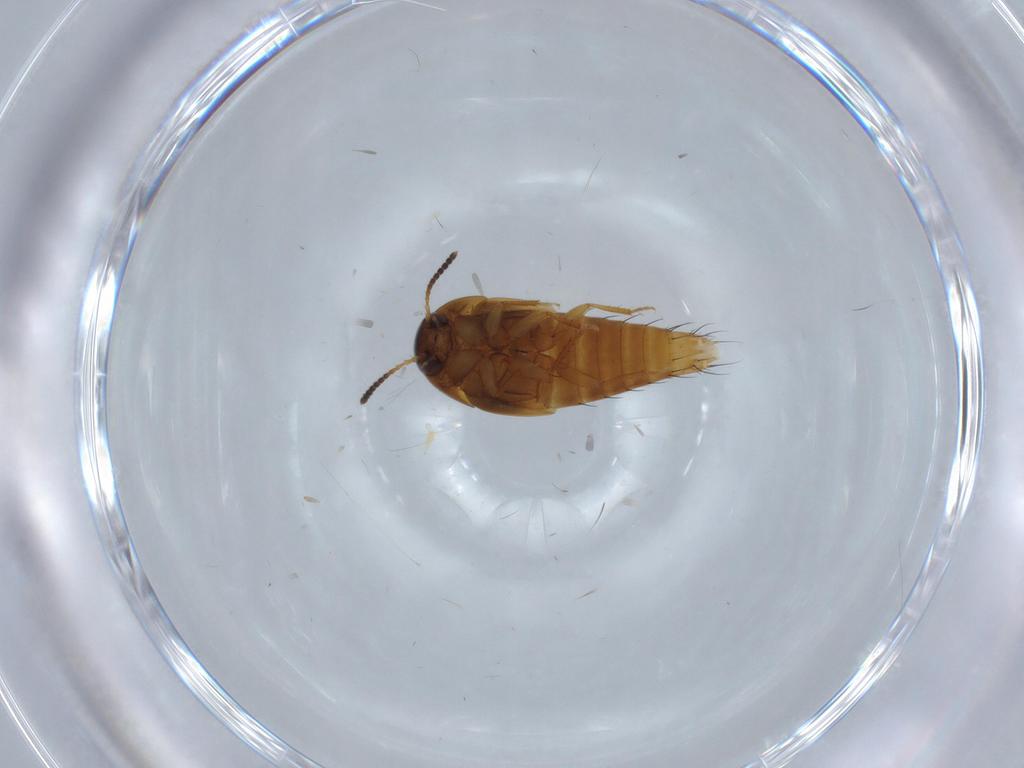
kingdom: Animalia
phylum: Arthropoda
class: Insecta
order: Coleoptera
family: Staphylinidae
